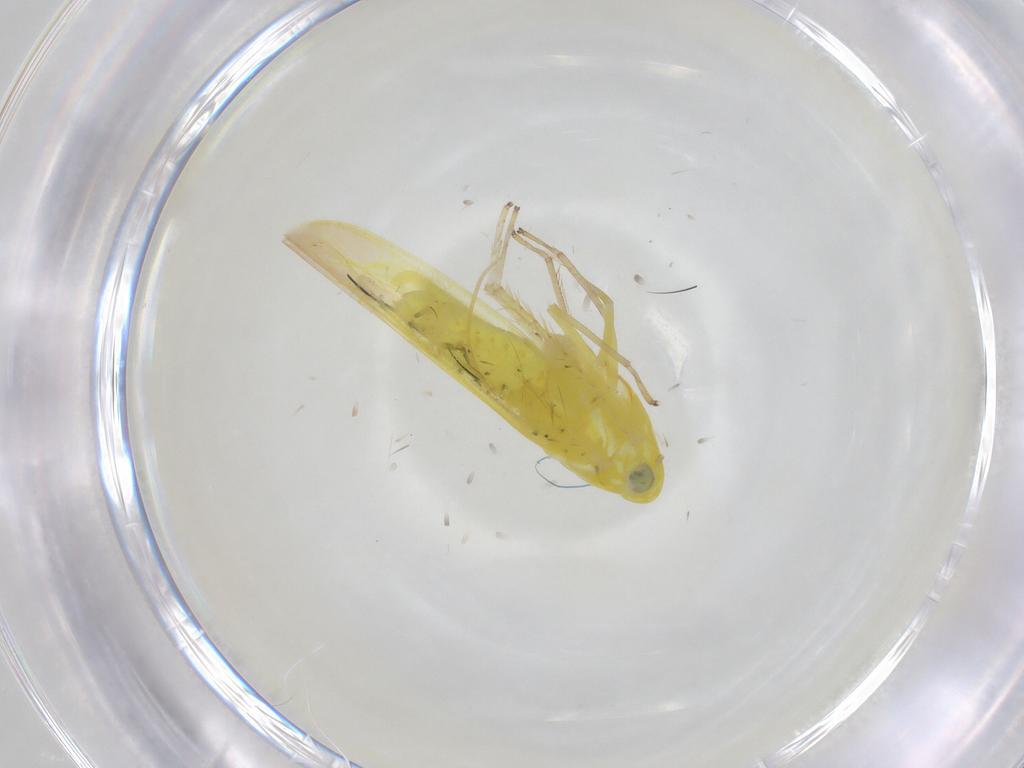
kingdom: Animalia
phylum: Arthropoda
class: Insecta
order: Hemiptera
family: Cicadellidae
